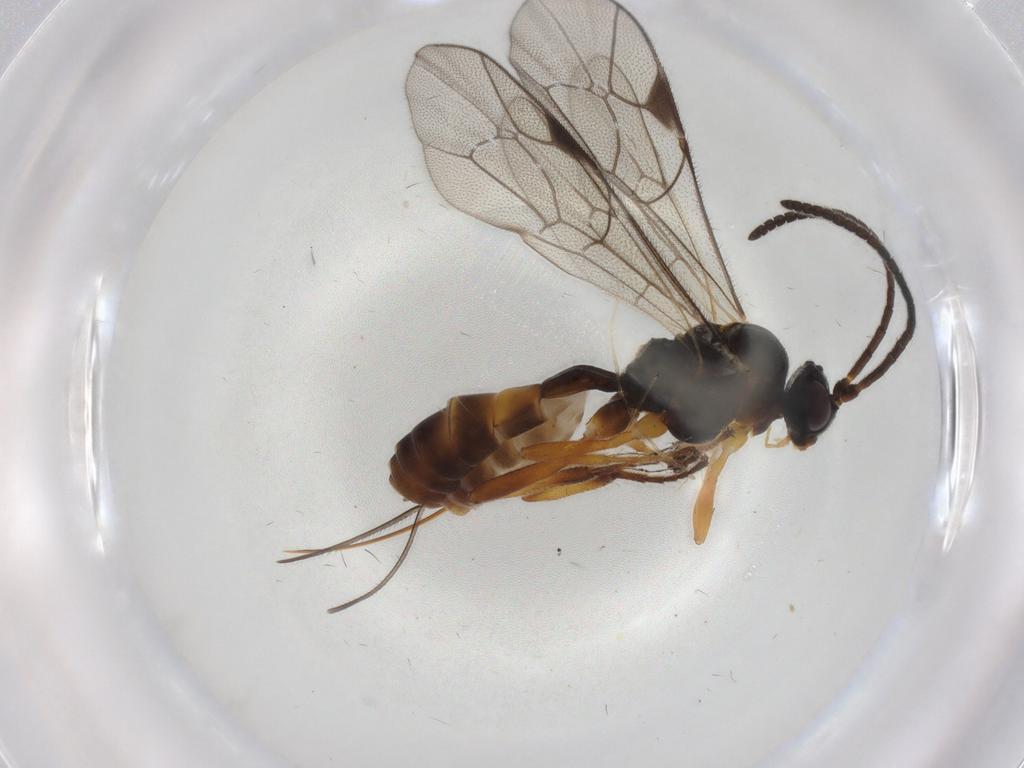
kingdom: Animalia
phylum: Arthropoda
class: Insecta
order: Hymenoptera
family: Ichneumonidae
